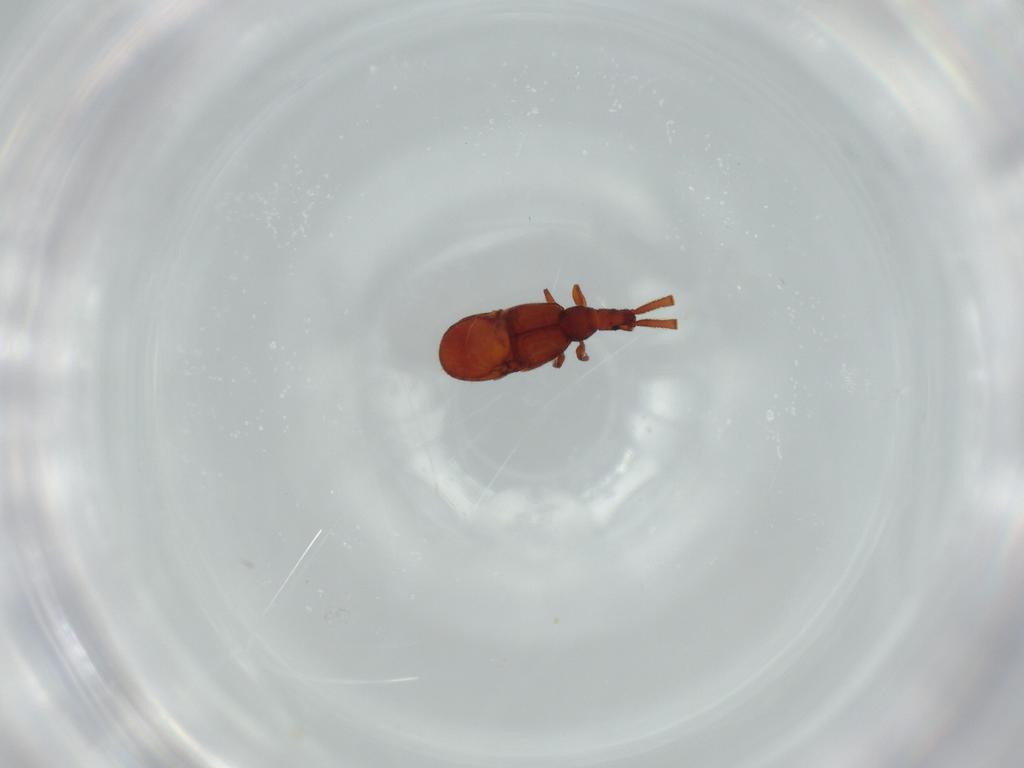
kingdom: Animalia
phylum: Arthropoda
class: Insecta
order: Coleoptera
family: Staphylinidae
